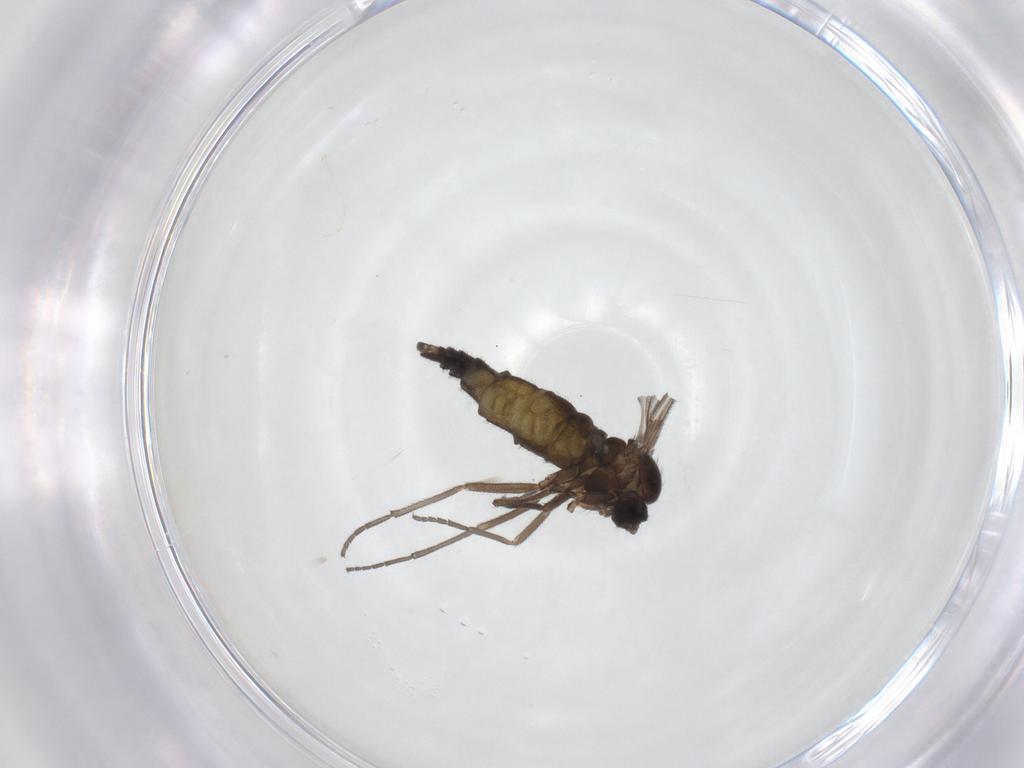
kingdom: Animalia
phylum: Arthropoda
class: Insecta
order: Diptera
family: Sciaridae
